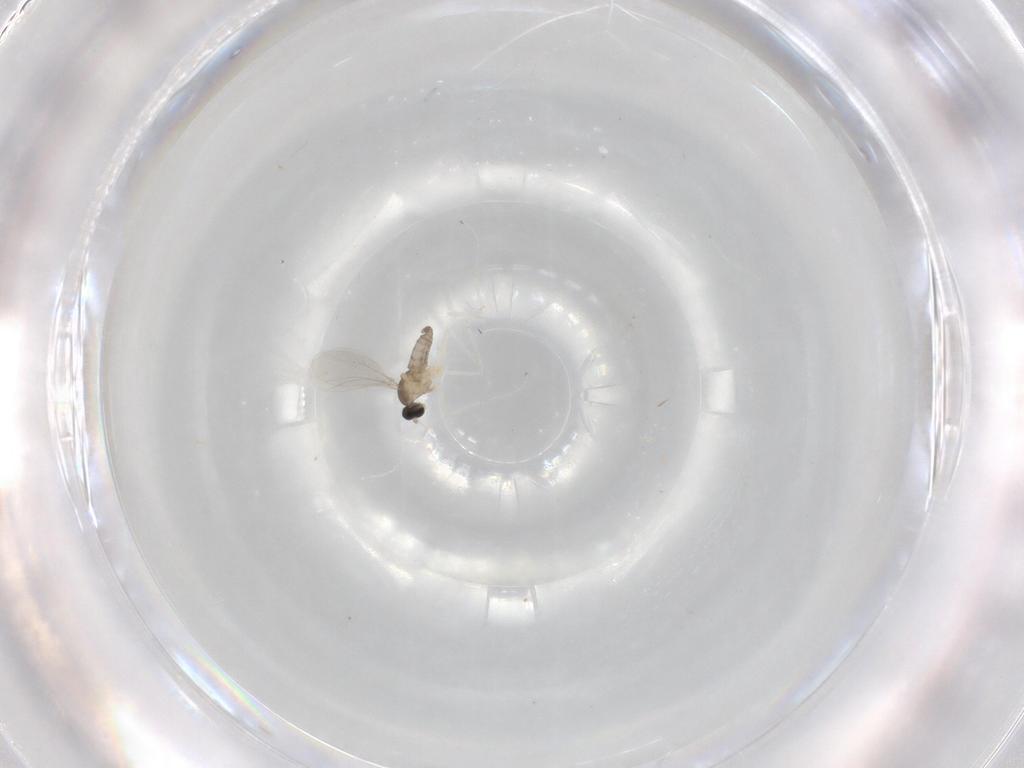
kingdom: Animalia
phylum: Arthropoda
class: Insecta
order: Diptera
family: Cecidomyiidae
